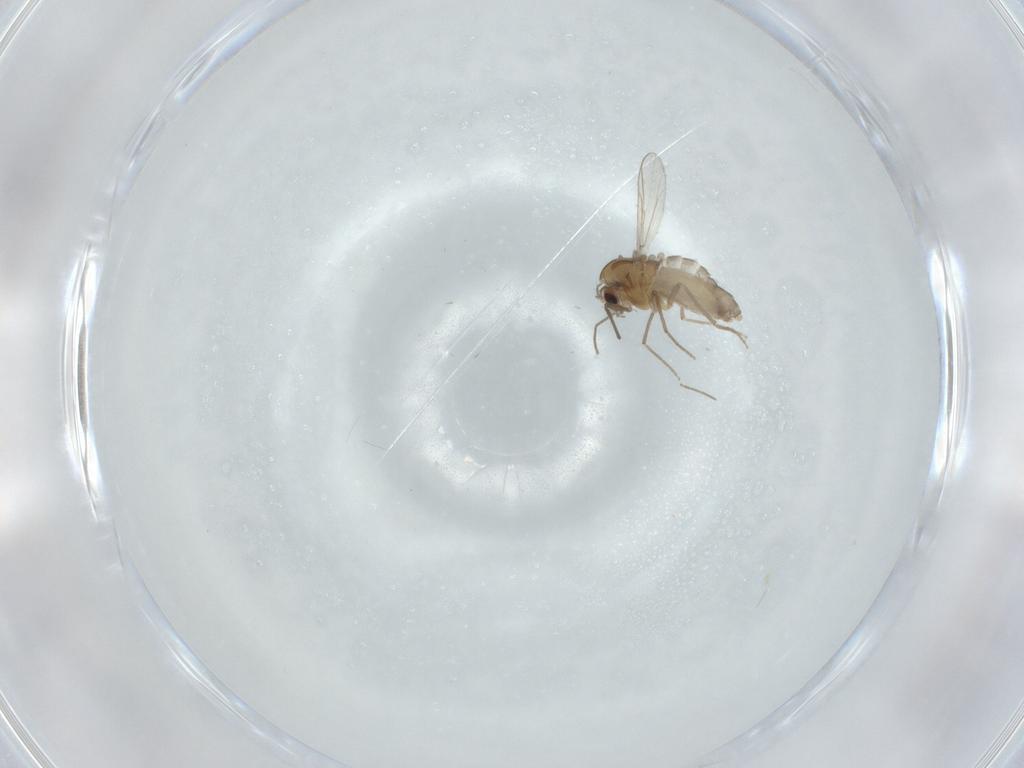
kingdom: Animalia
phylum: Arthropoda
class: Insecta
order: Diptera
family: Chironomidae
